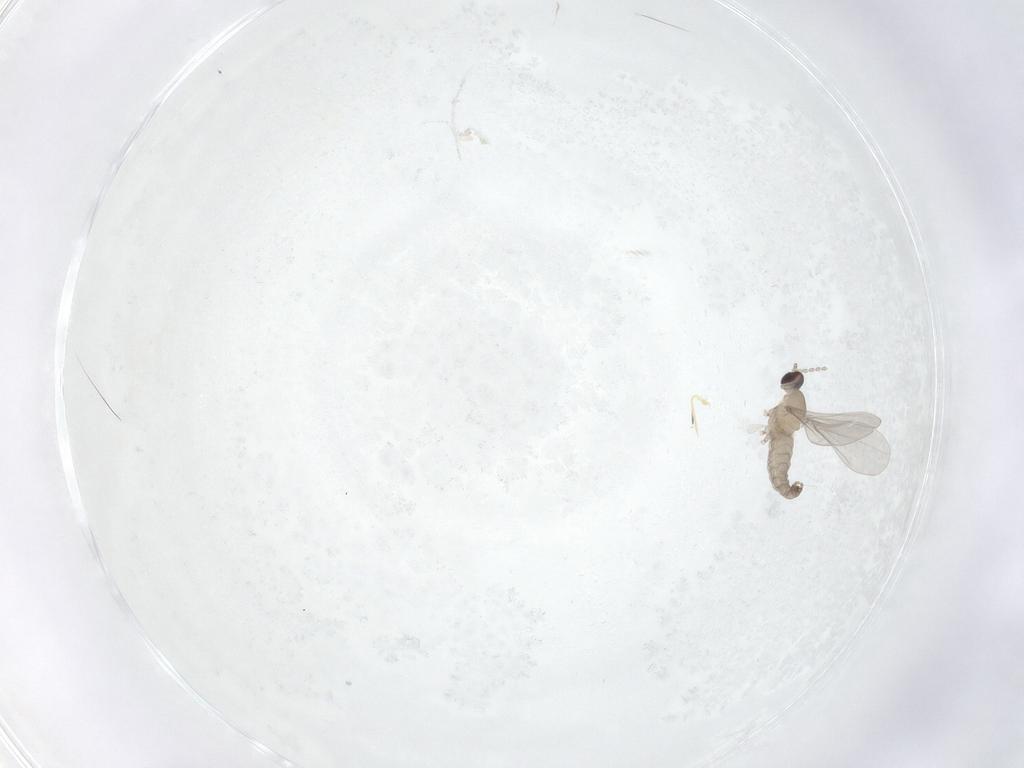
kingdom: Animalia
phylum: Arthropoda
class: Insecta
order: Diptera
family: Cecidomyiidae
